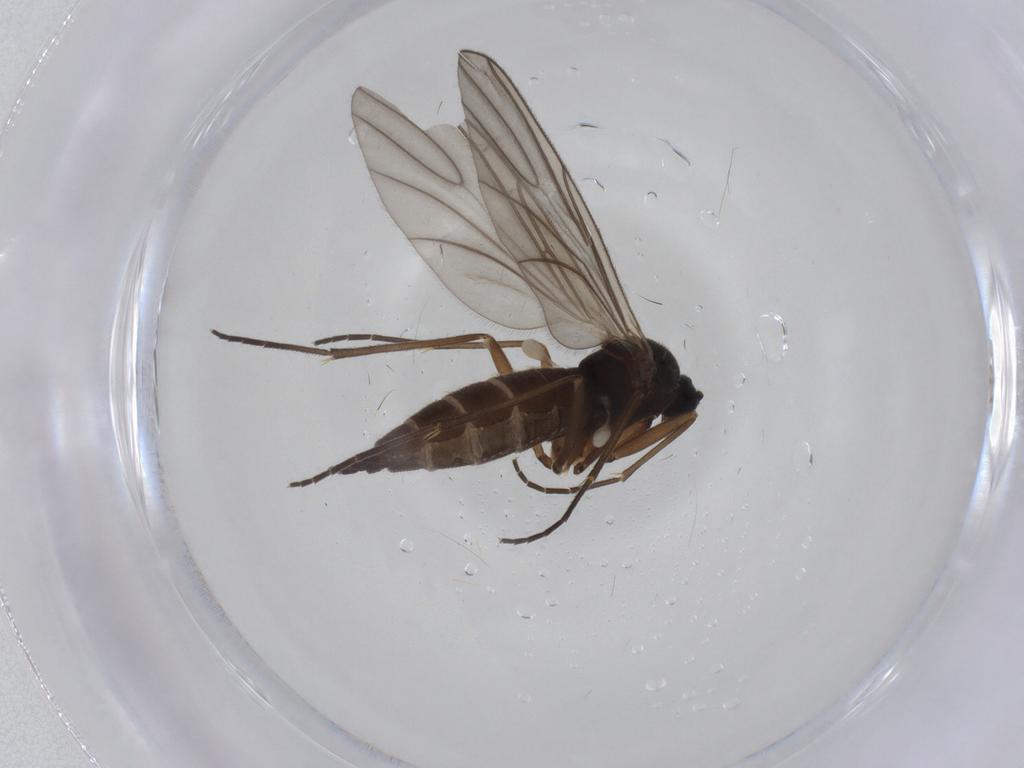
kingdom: Animalia
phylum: Arthropoda
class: Insecta
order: Diptera
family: Sciaridae
